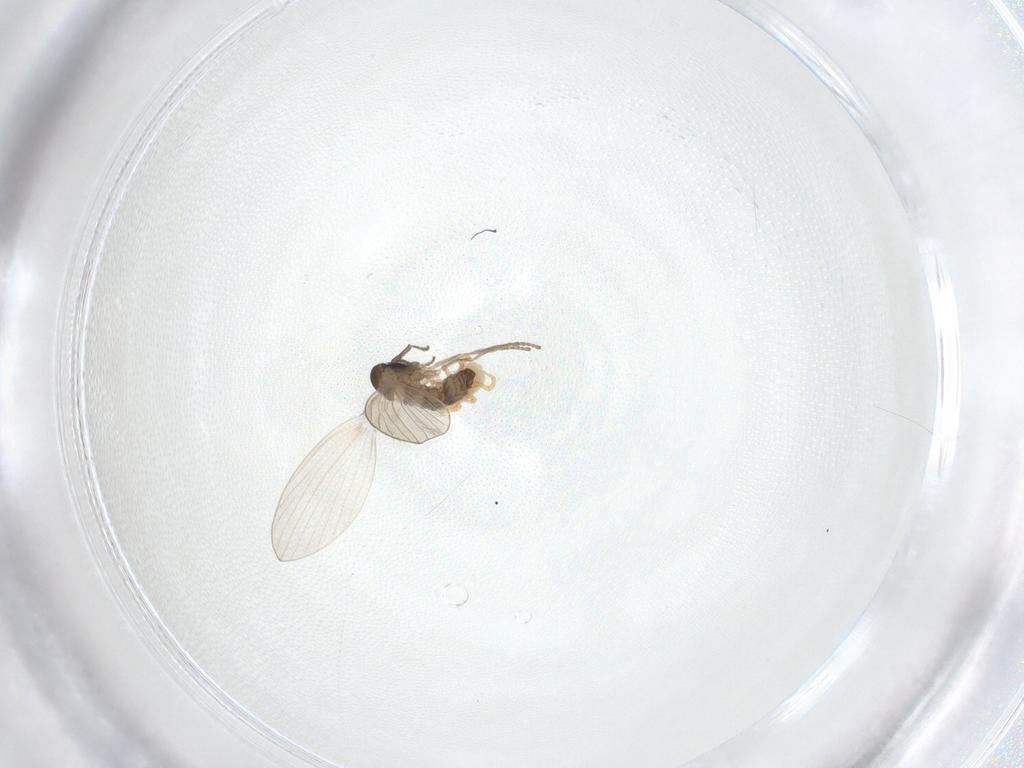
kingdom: Animalia
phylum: Arthropoda
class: Insecta
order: Diptera
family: Psychodidae
